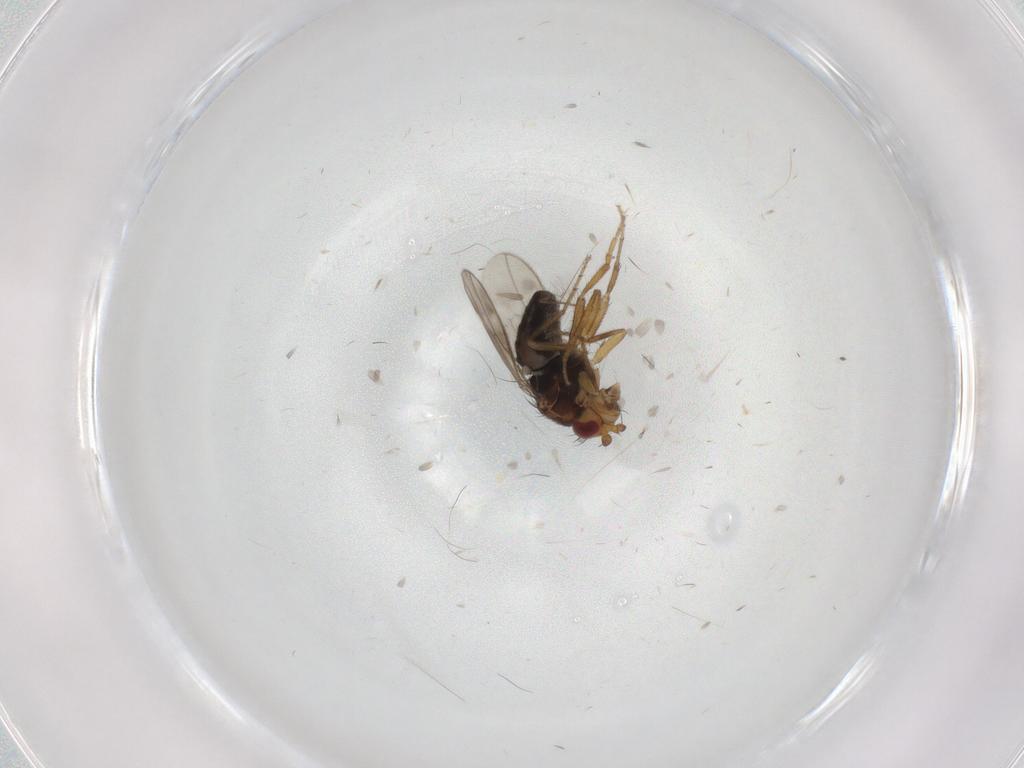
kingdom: Animalia
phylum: Arthropoda
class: Insecta
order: Diptera
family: Sphaeroceridae
